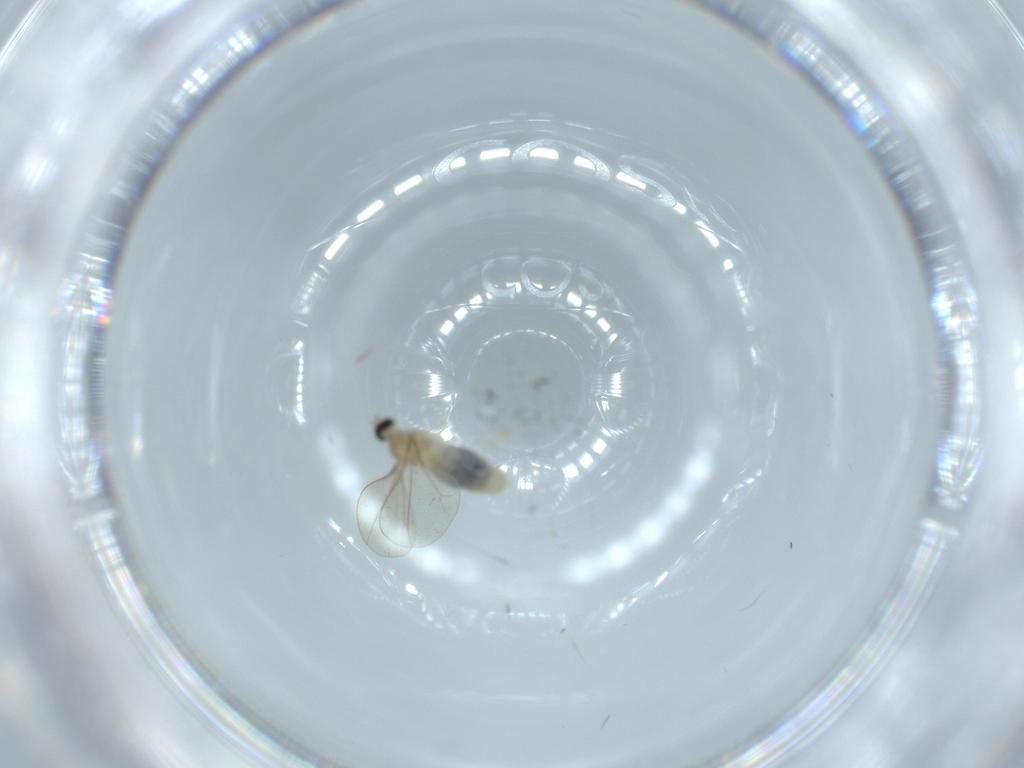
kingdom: Animalia
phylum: Arthropoda
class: Insecta
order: Diptera
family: Cecidomyiidae
